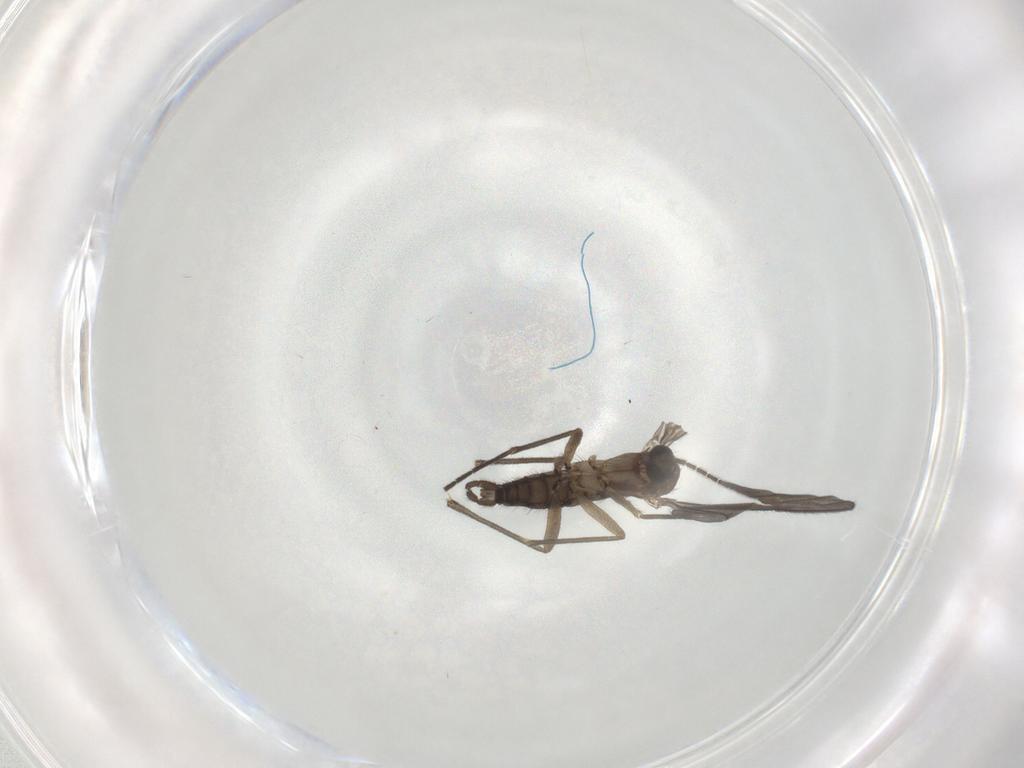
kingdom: Animalia
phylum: Arthropoda
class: Insecta
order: Diptera
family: Sciaridae
